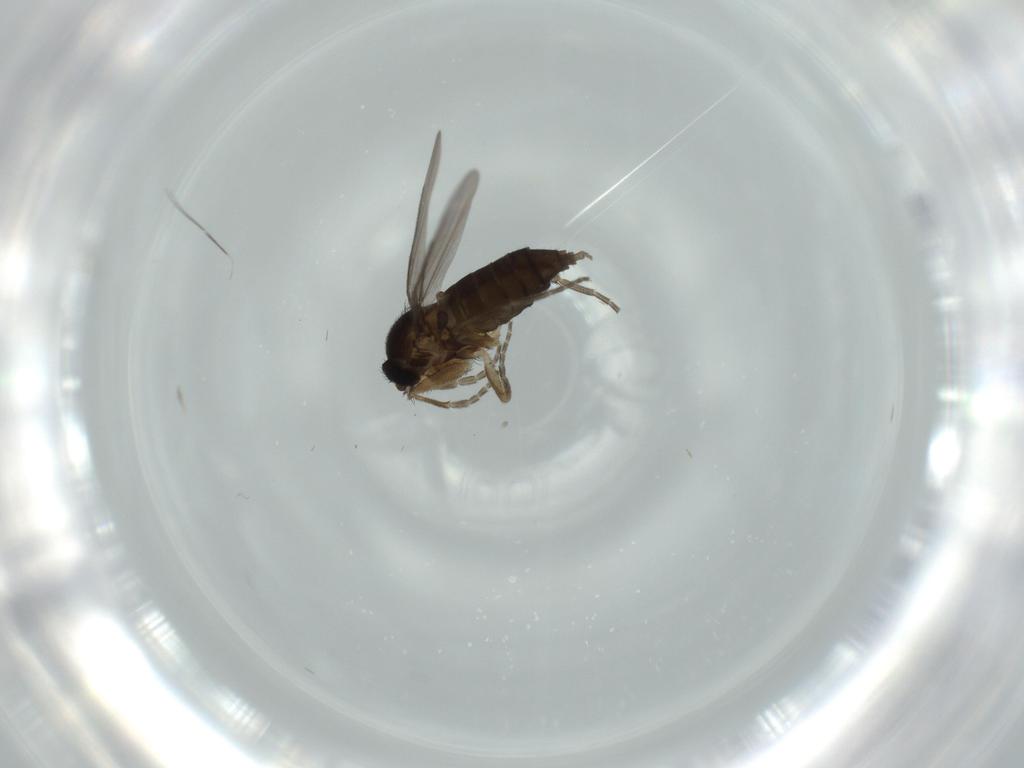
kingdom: Animalia
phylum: Arthropoda
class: Insecta
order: Diptera
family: Phoridae
